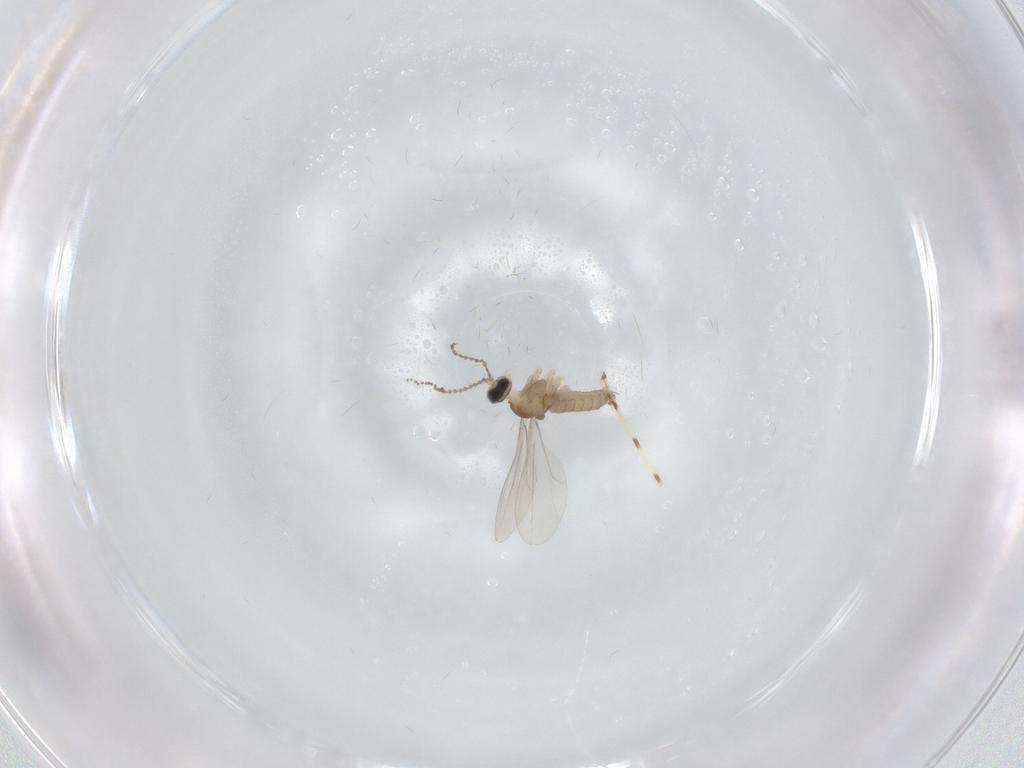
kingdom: Animalia
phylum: Arthropoda
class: Insecta
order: Diptera
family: Cecidomyiidae
